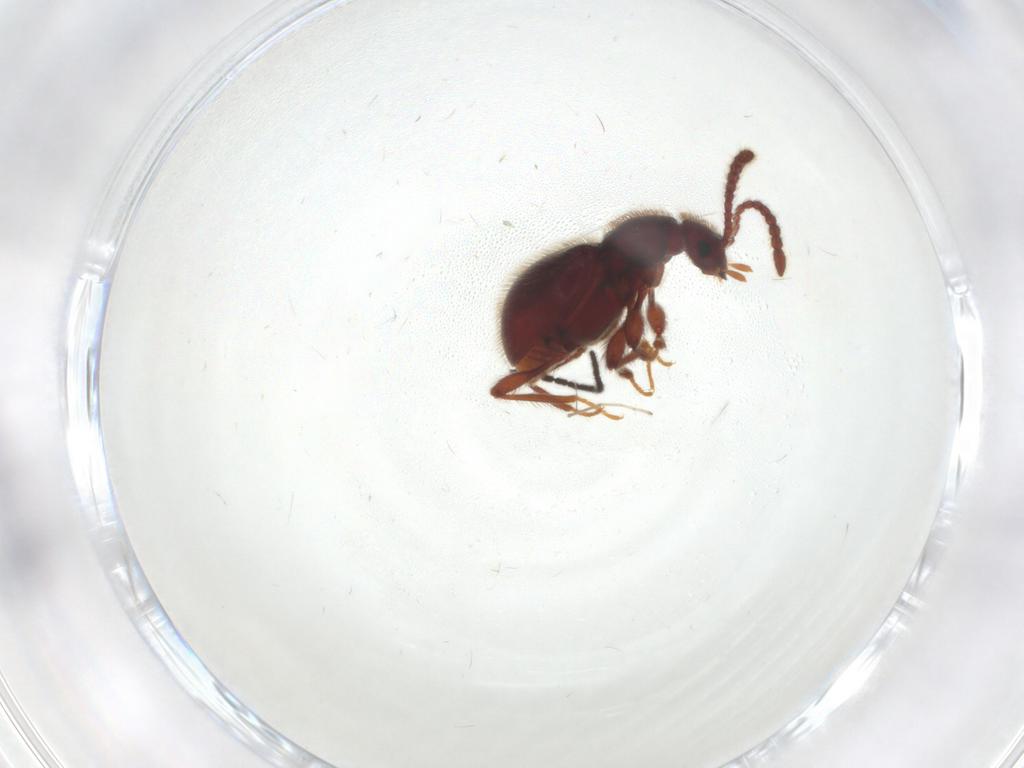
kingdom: Animalia
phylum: Arthropoda
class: Insecta
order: Coleoptera
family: Staphylinidae
